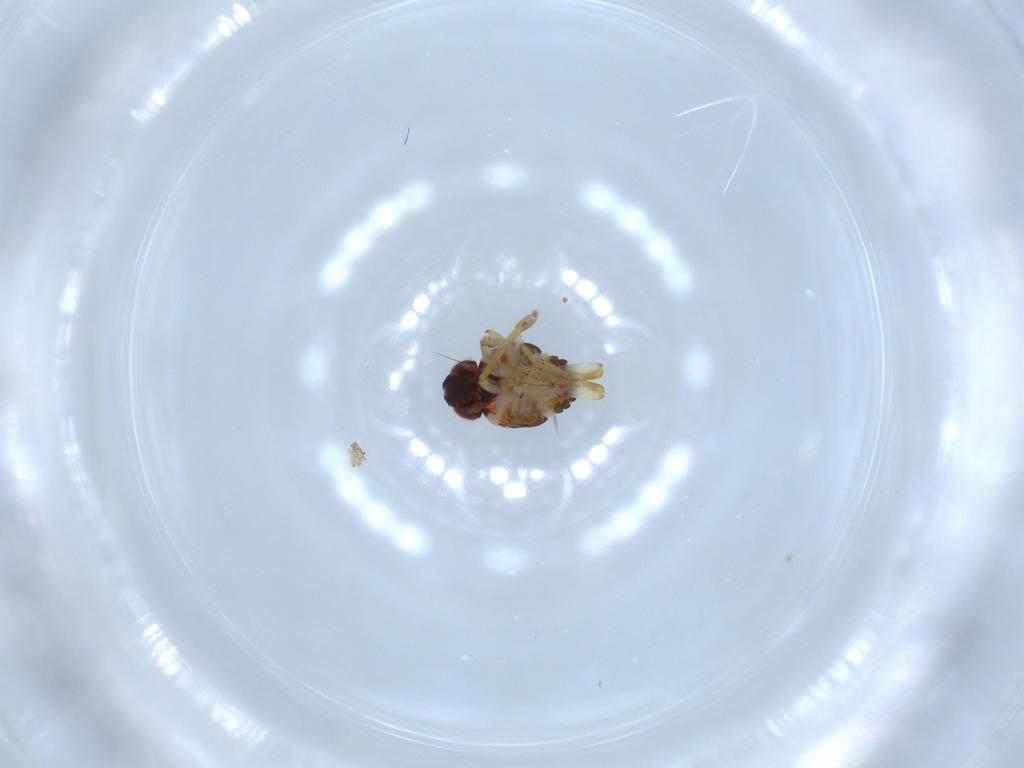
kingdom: Animalia
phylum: Arthropoda
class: Insecta
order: Hemiptera
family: Issidae
